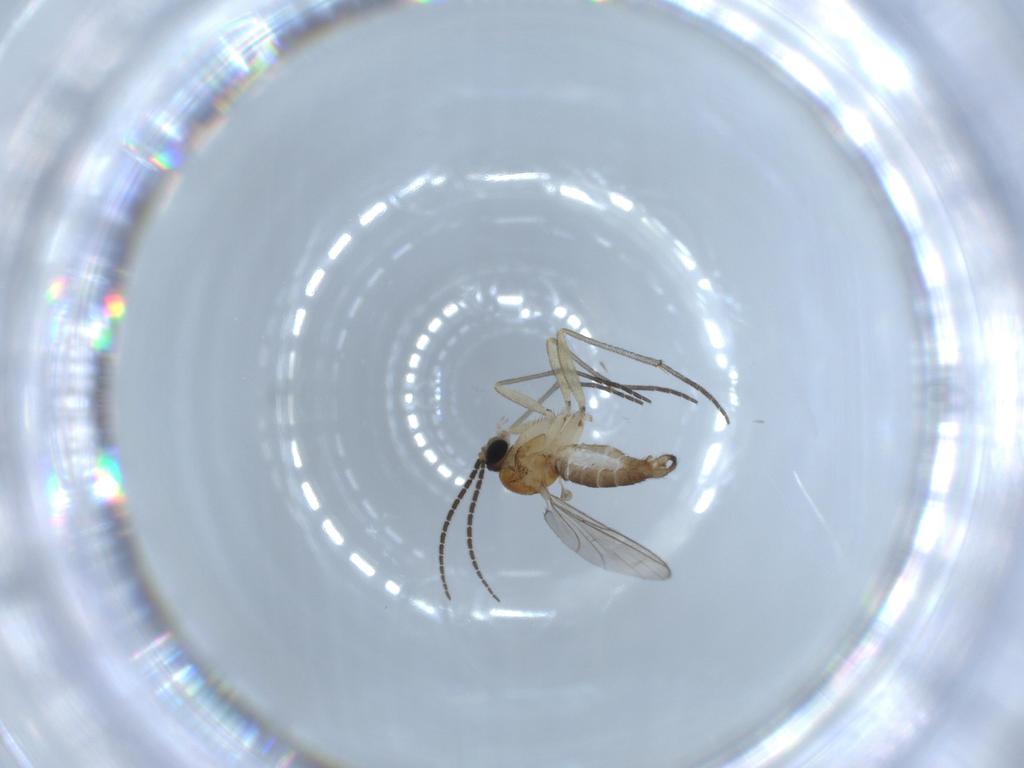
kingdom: Animalia
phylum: Arthropoda
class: Insecta
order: Diptera
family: Sciaridae
